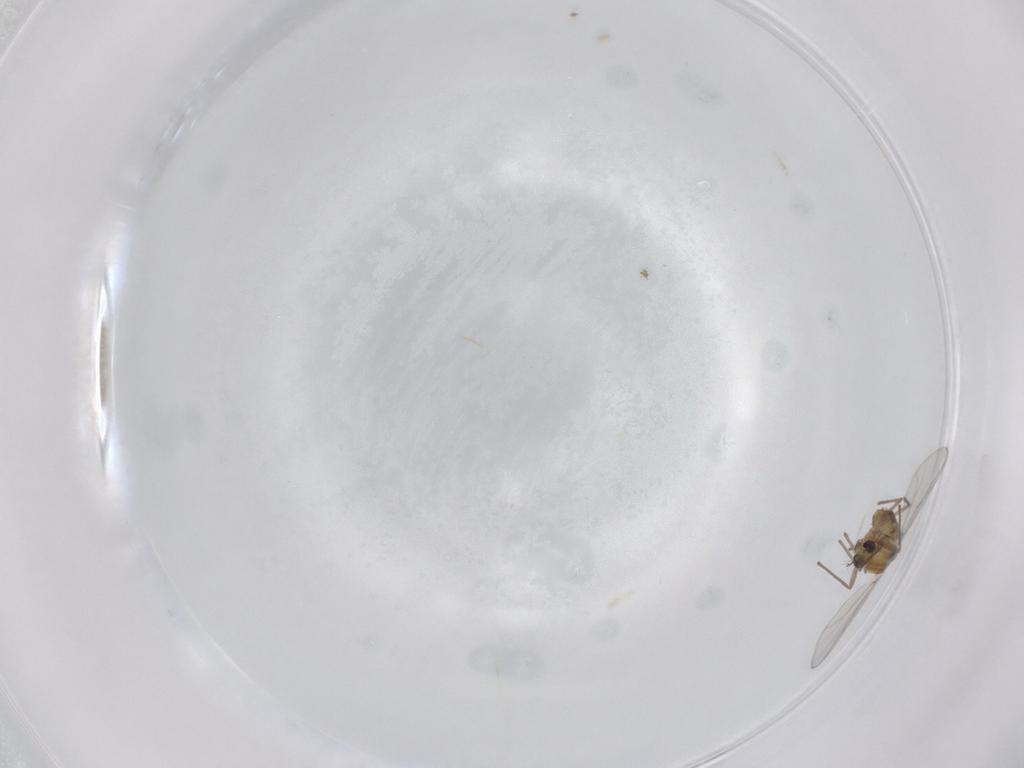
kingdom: Animalia
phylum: Arthropoda
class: Insecta
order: Diptera
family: Chironomidae
